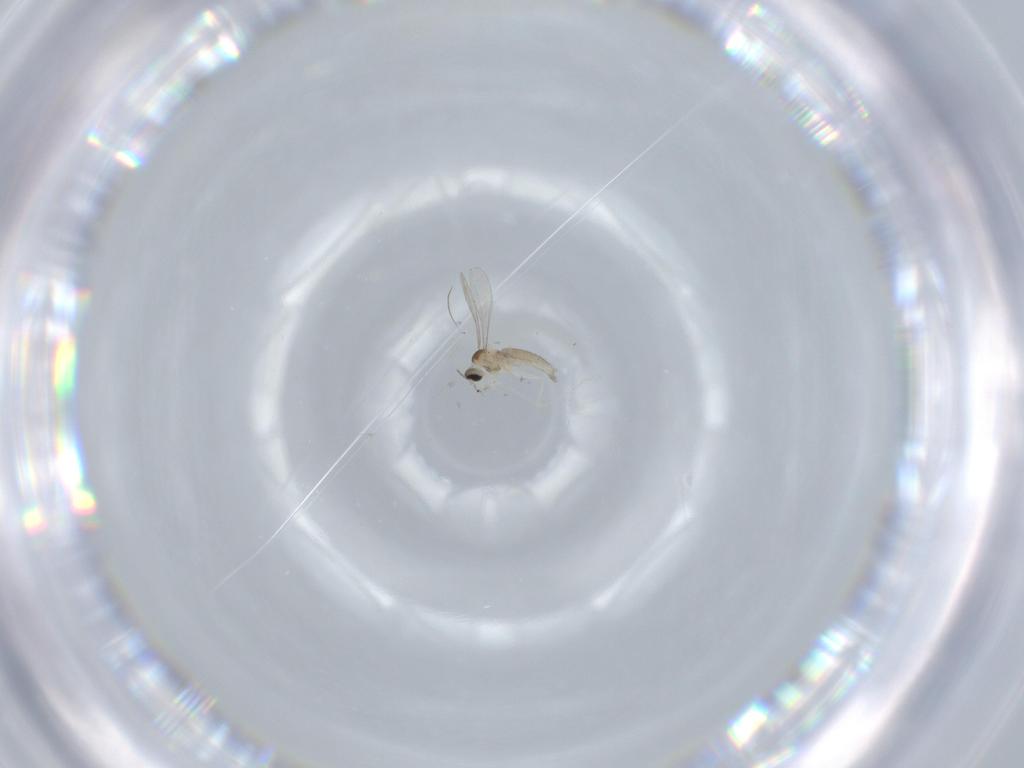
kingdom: Animalia
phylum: Arthropoda
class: Insecta
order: Diptera
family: Cecidomyiidae
